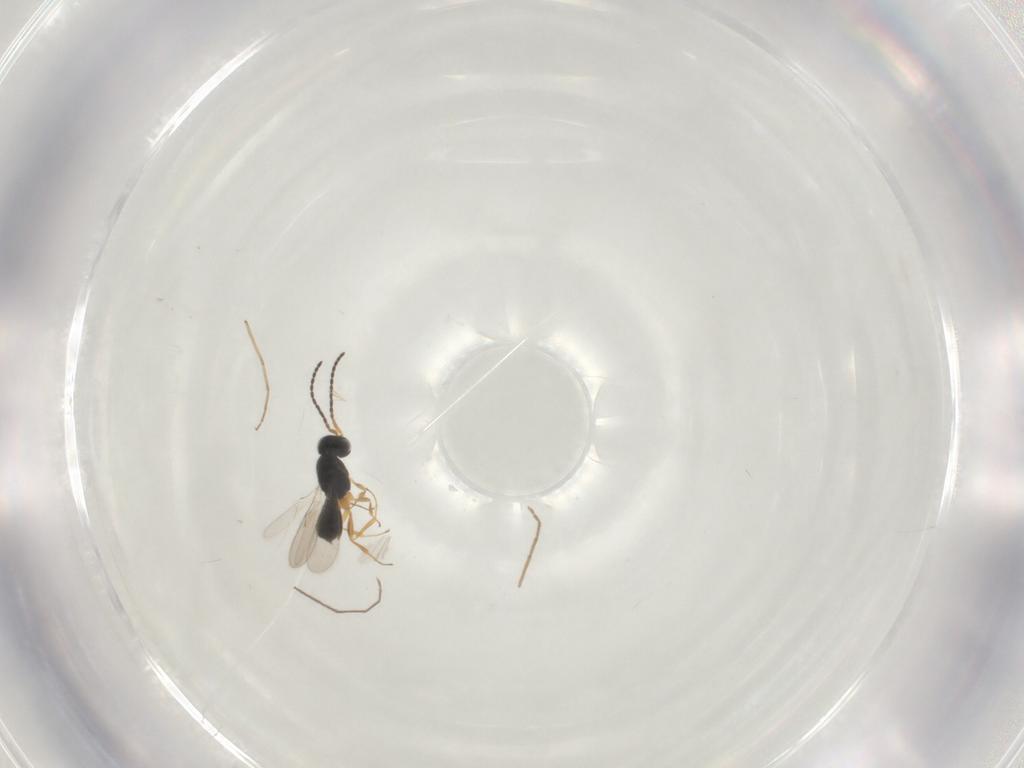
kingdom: Animalia
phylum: Arthropoda
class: Insecta
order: Hymenoptera
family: Scelionidae
